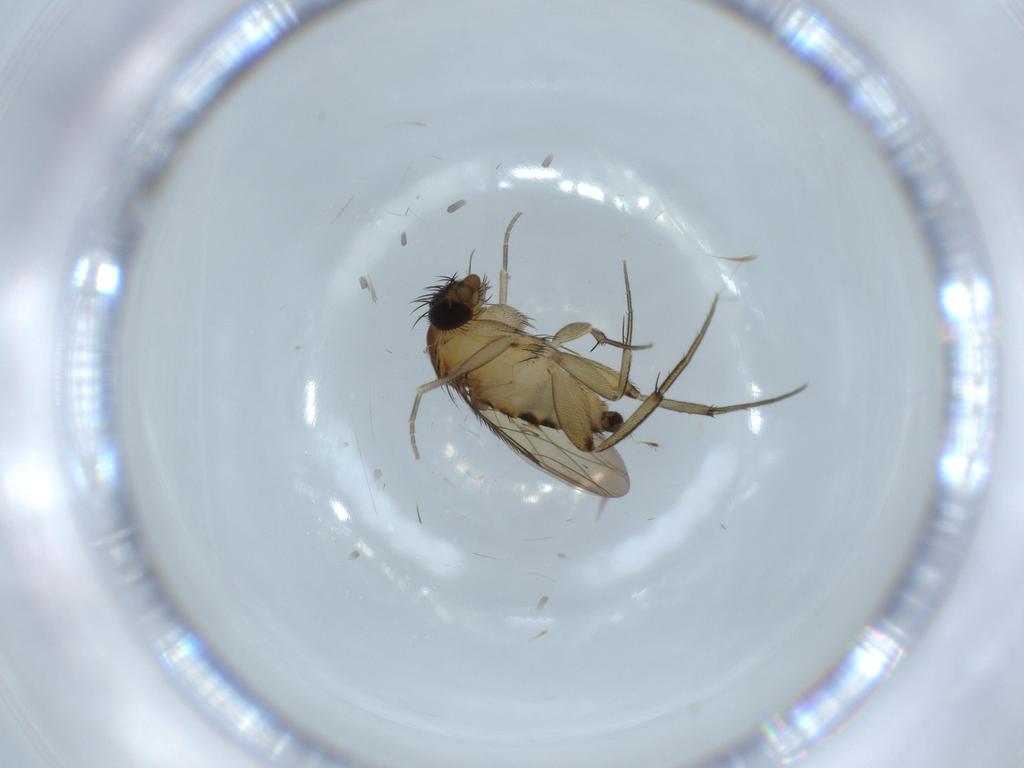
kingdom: Animalia
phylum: Arthropoda
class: Insecta
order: Diptera
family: Phoridae
